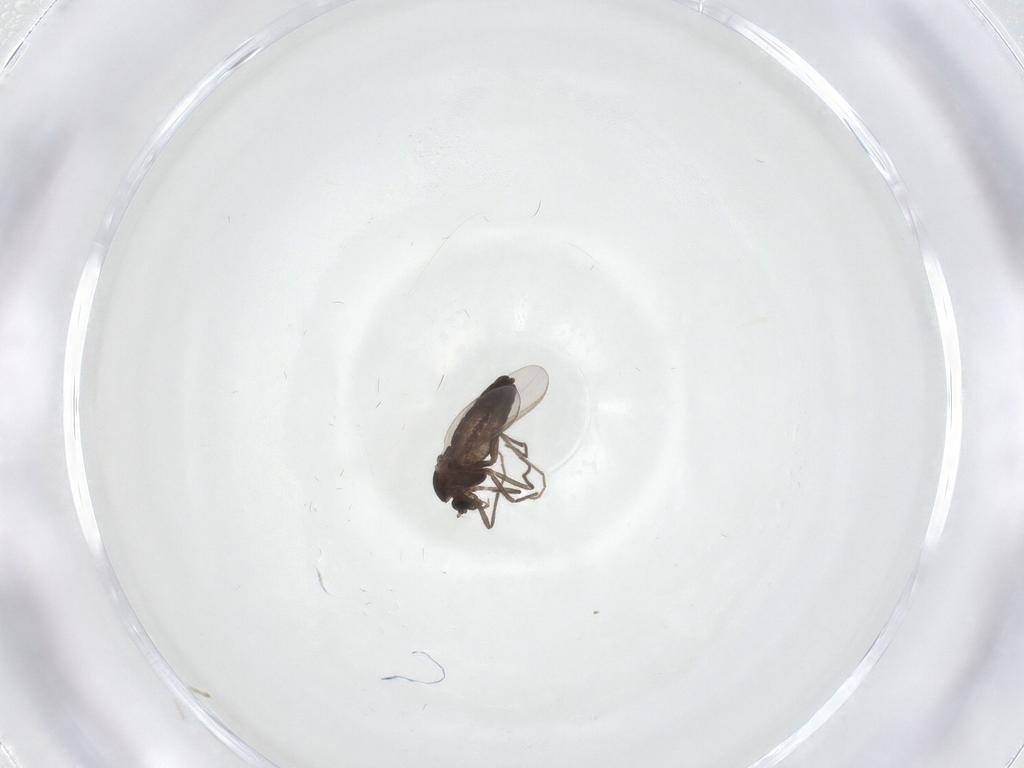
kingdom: Animalia
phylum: Arthropoda
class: Insecta
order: Diptera
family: Chironomidae
